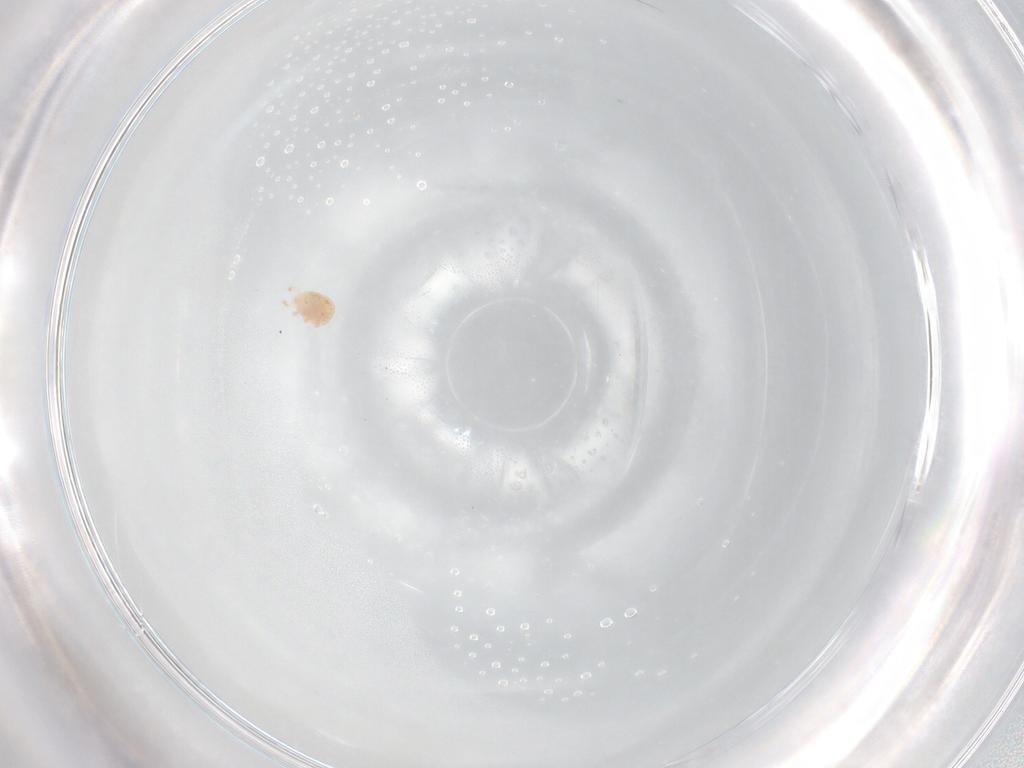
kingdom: Animalia
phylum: Arthropoda
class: Arachnida
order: Mesostigmata
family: Zerconidae
